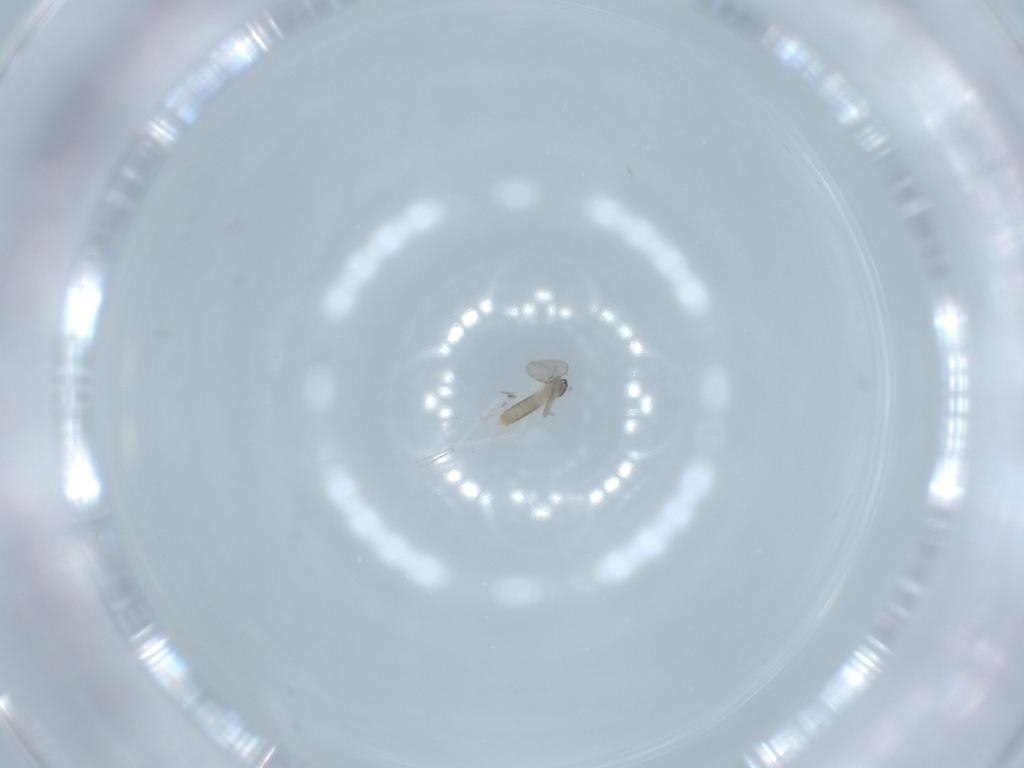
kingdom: Animalia
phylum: Arthropoda
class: Insecta
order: Diptera
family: Cecidomyiidae
